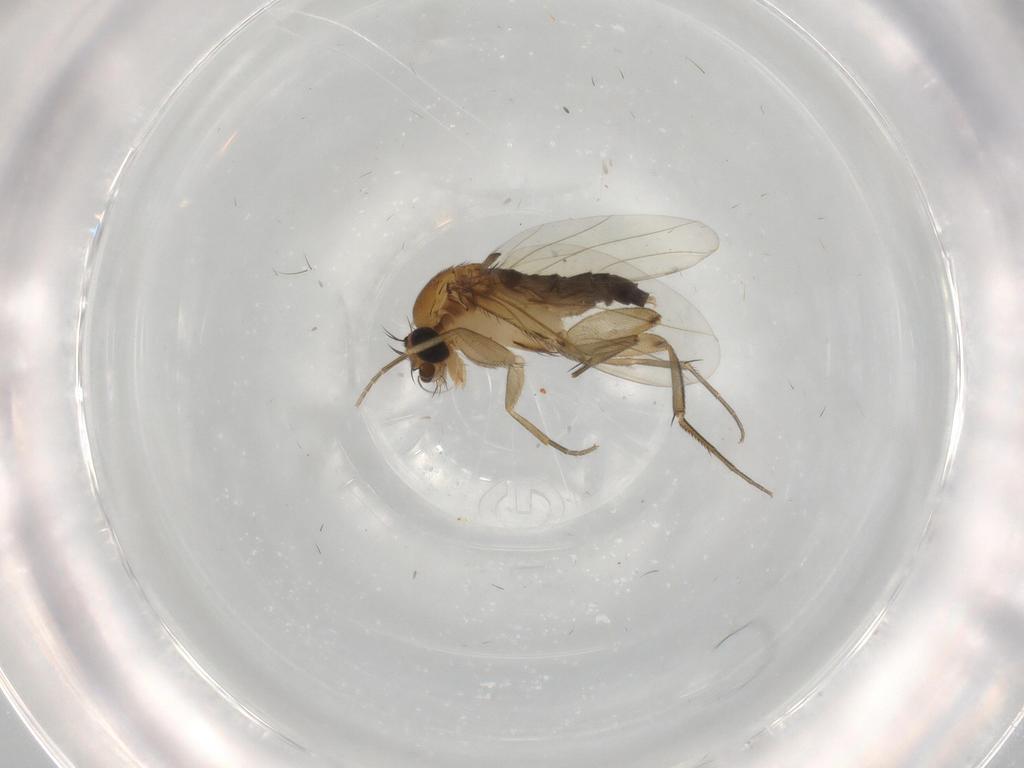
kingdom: Animalia
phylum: Arthropoda
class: Insecta
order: Diptera
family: Phoridae
